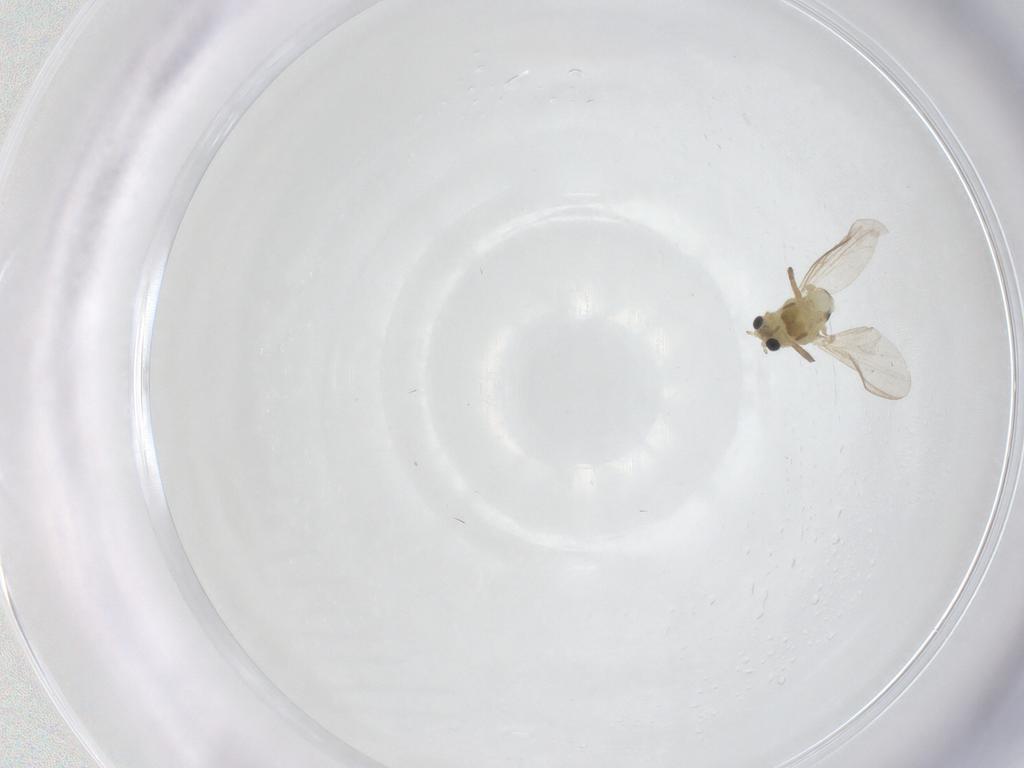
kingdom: Animalia
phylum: Arthropoda
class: Insecta
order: Diptera
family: Chironomidae
